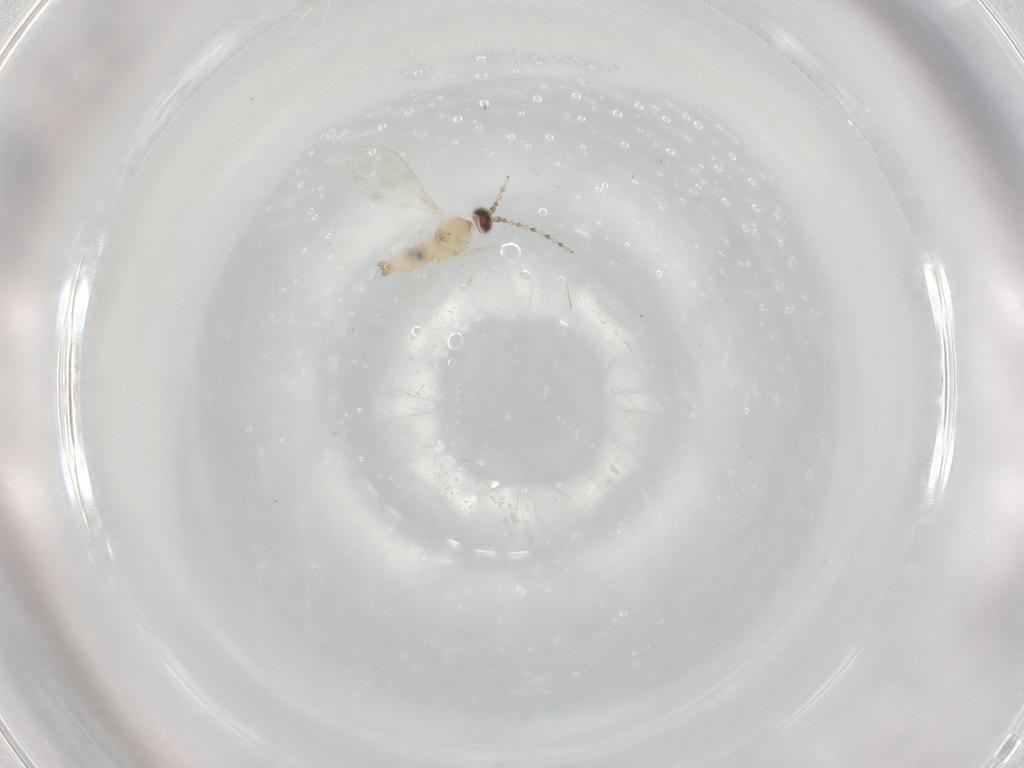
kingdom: Animalia
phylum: Arthropoda
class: Insecta
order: Diptera
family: Cecidomyiidae
